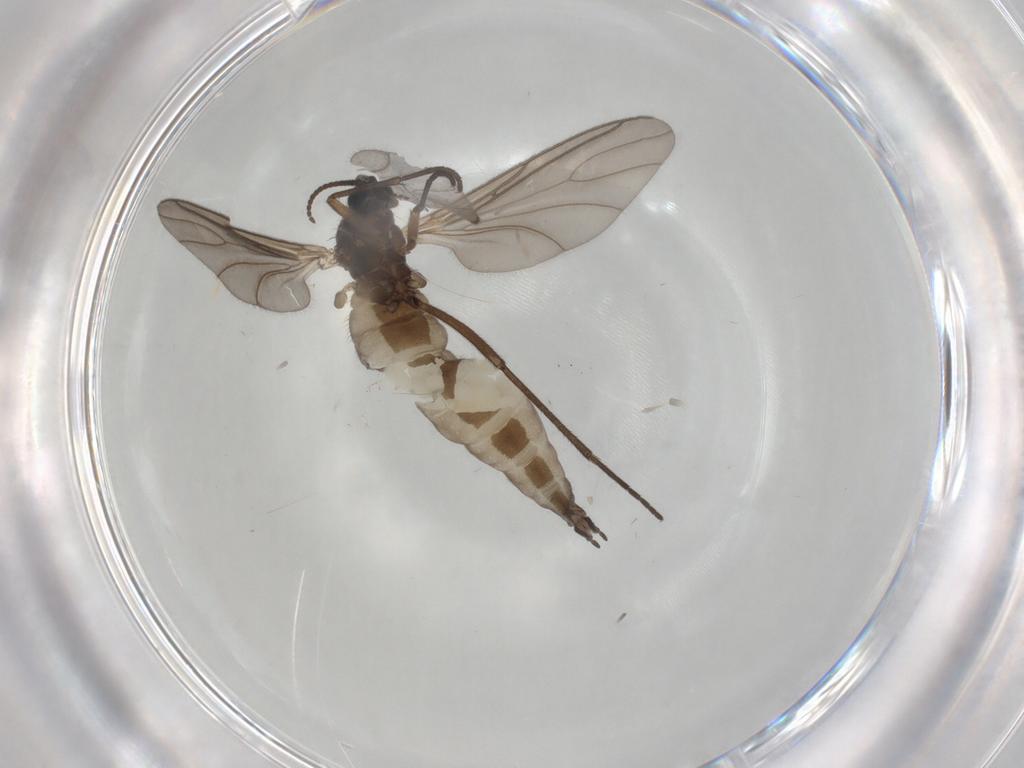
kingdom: Animalia
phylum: Arthropoda
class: Insecta
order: Diptera
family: Sciaridae
